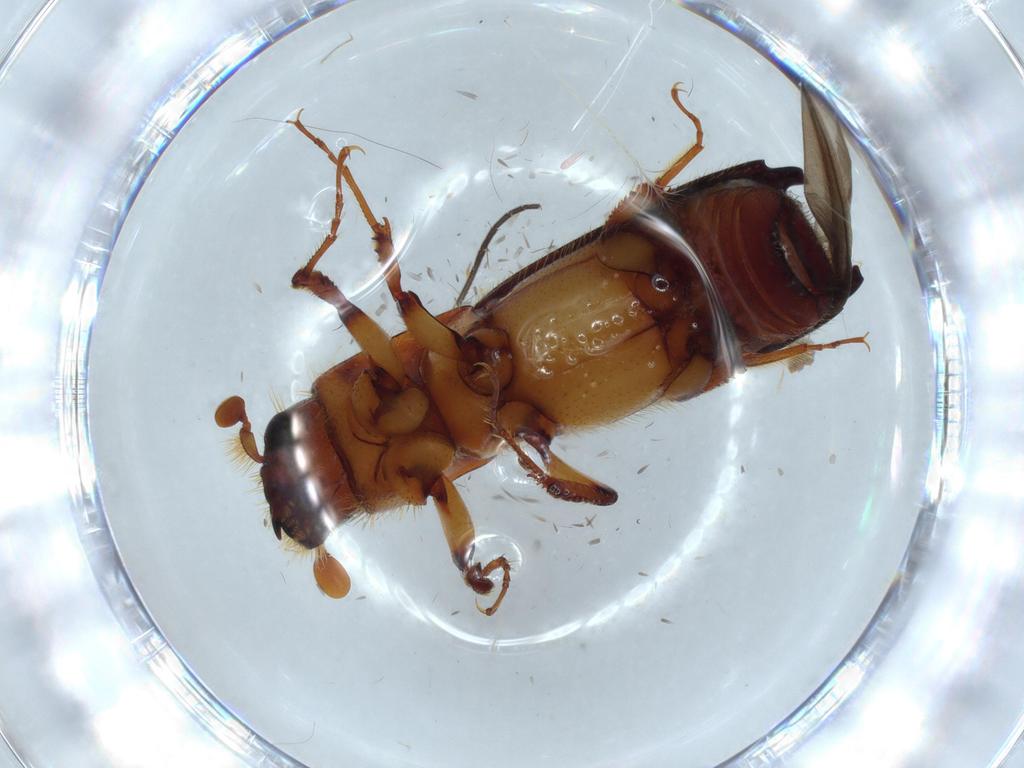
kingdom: Animalia
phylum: Arthropoda
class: Insecta
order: Coleoptera
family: Curculionidae
